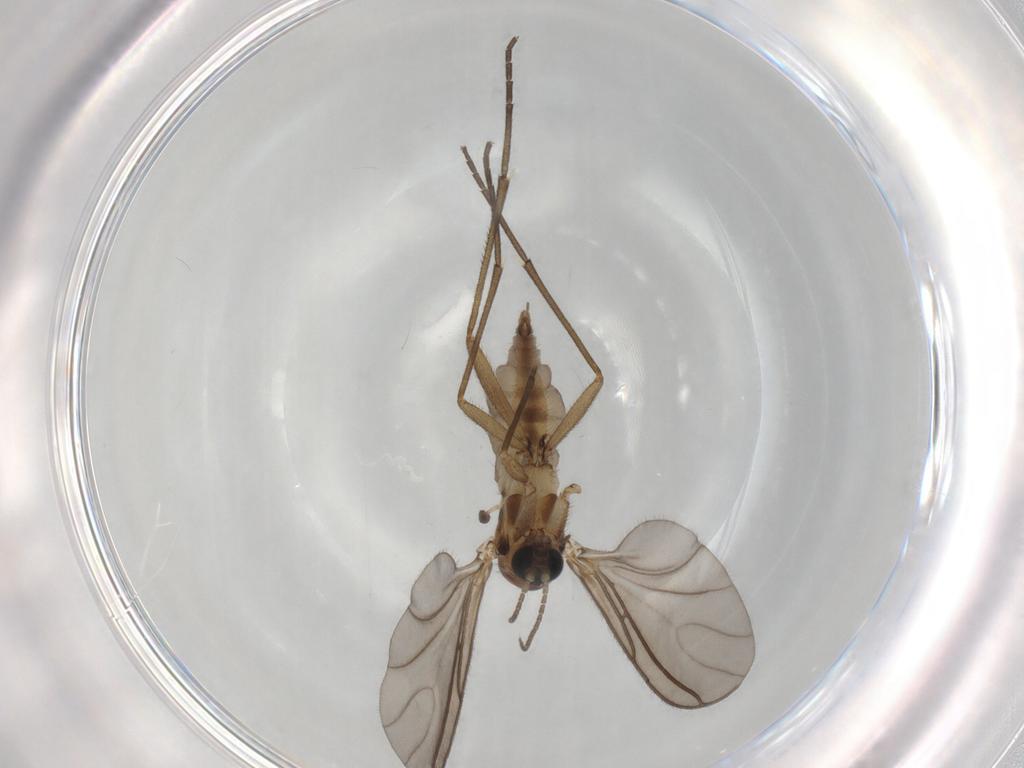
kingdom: Animalia
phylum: Arthropoda
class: Insecta
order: Diptera
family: Sciaridae
